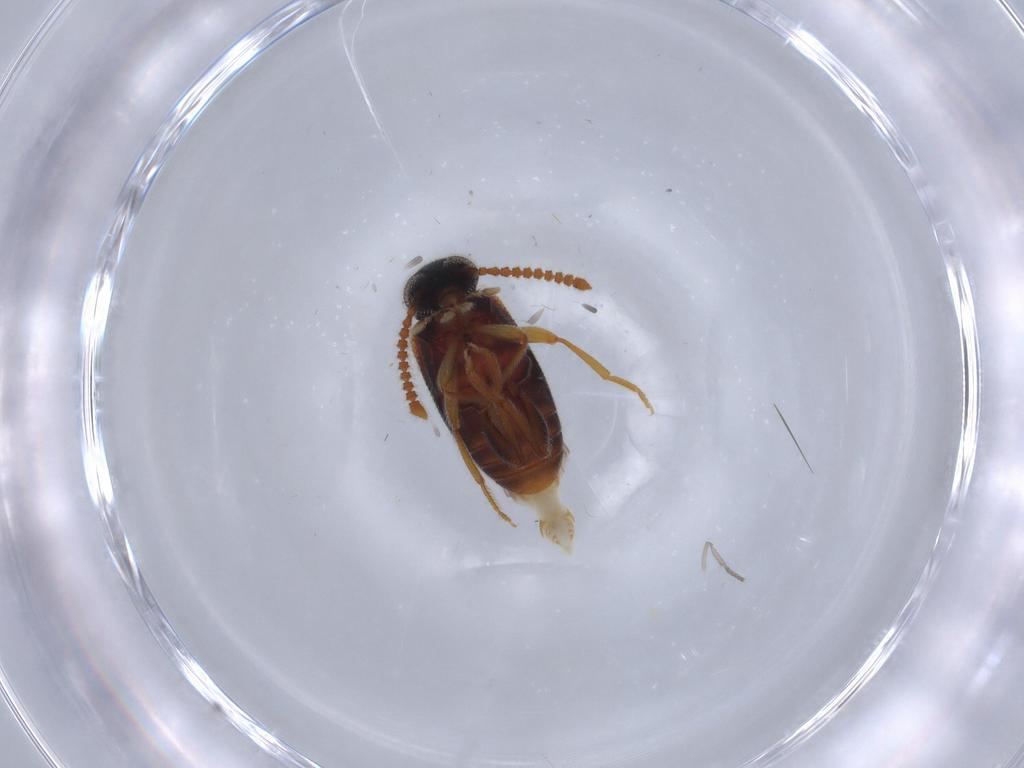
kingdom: Animalia
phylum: Arthropoda
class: Insecta
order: Coleoptera
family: Aderidae
